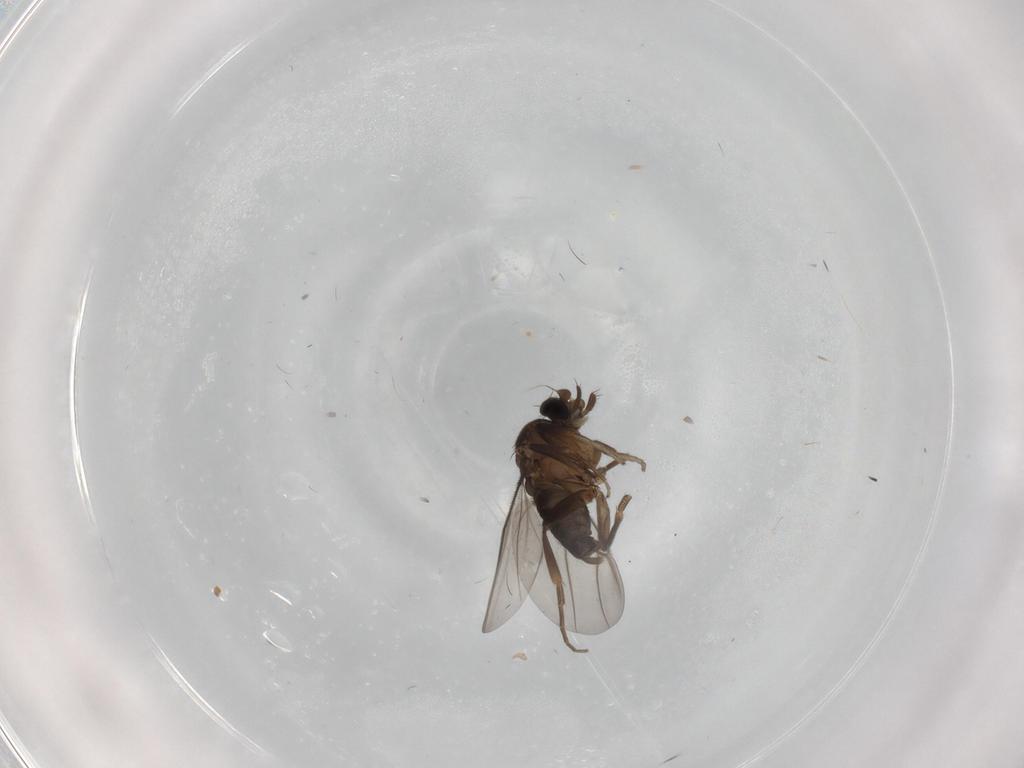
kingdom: Animalia
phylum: Arthropoda
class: Insecta
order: Diptera
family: Phoridae
